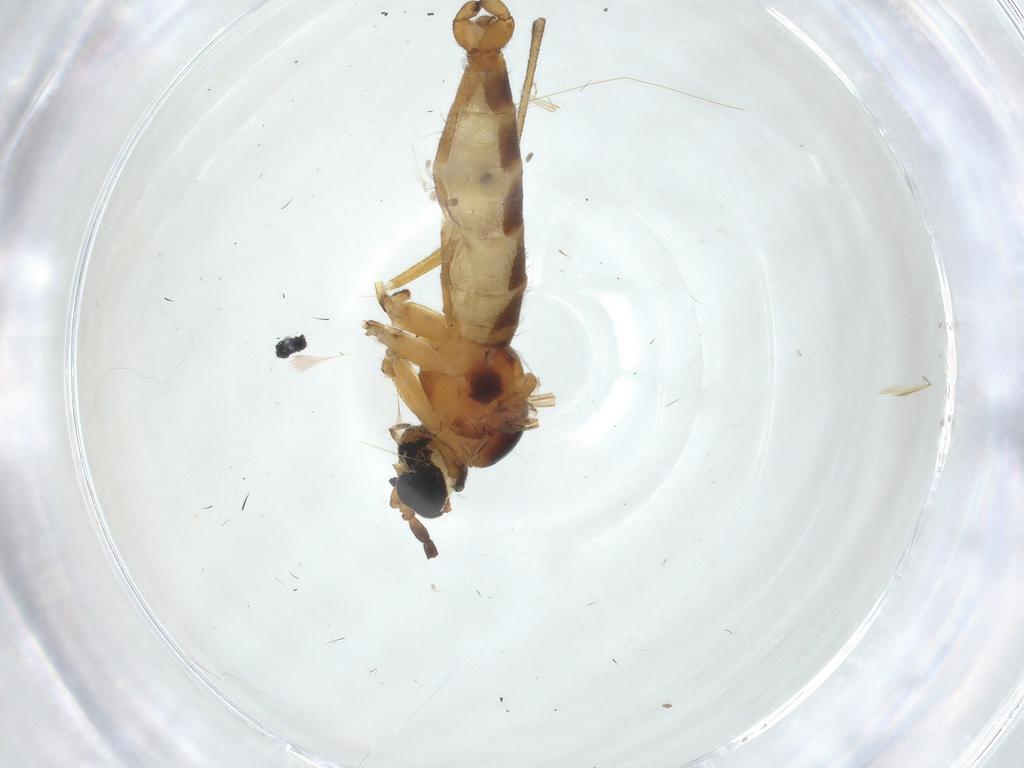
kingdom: Animalia
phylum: Arthropoda
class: Insecta
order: Diptera
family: Sciaridae
